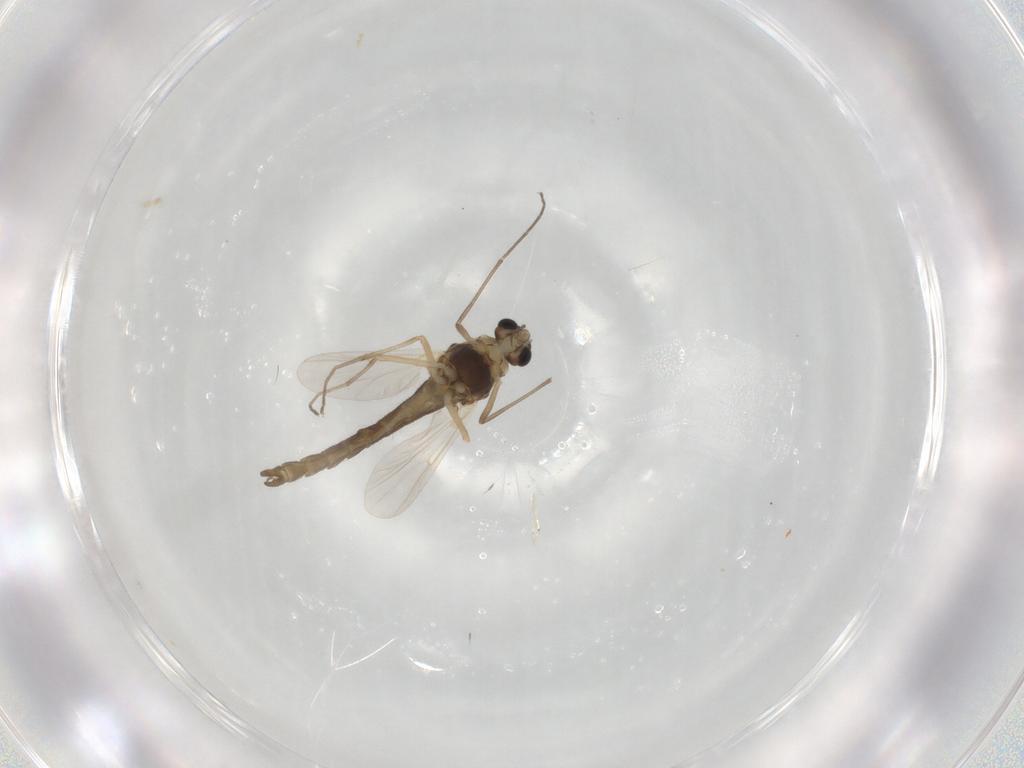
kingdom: Animalia
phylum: Arthropoda
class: Insecta
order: Diptera
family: Chironomidae
